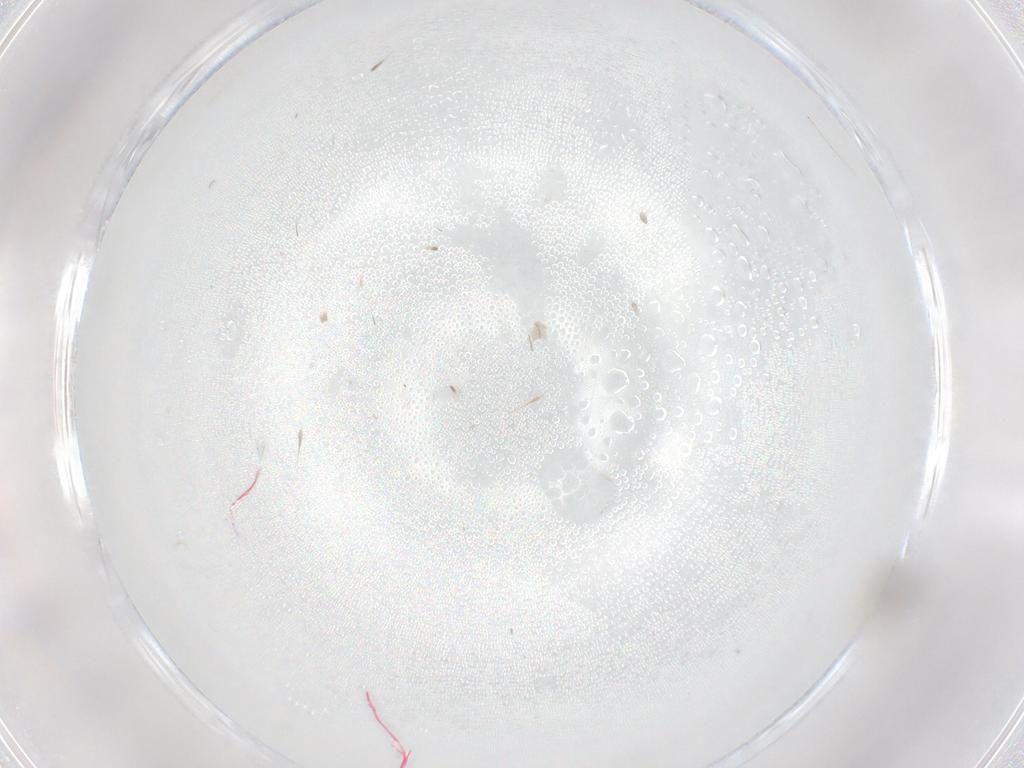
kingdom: Animalia
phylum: Arthropoda
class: Insecta
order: Diptera
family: Cecidomyiidae
